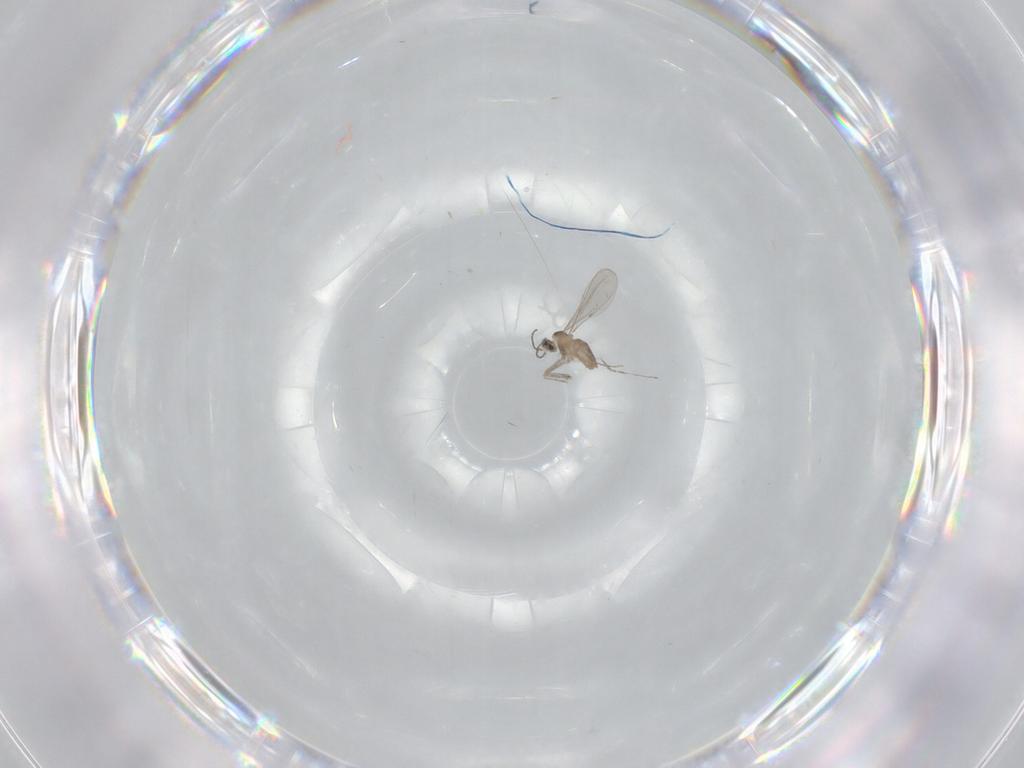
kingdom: Animalia
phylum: Arthropoda
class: Insecta
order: Diptera
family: Cecidomyiidae
